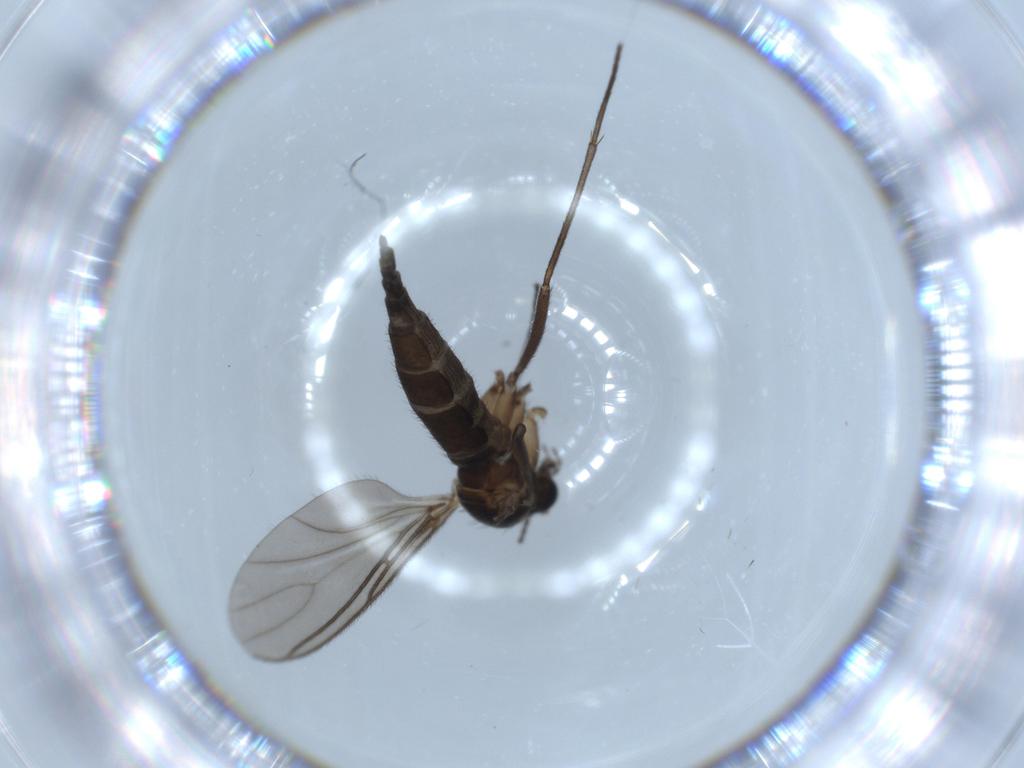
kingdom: Animalia
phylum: Arthropoda
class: Insecta
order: Diptera
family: Sciaridae
